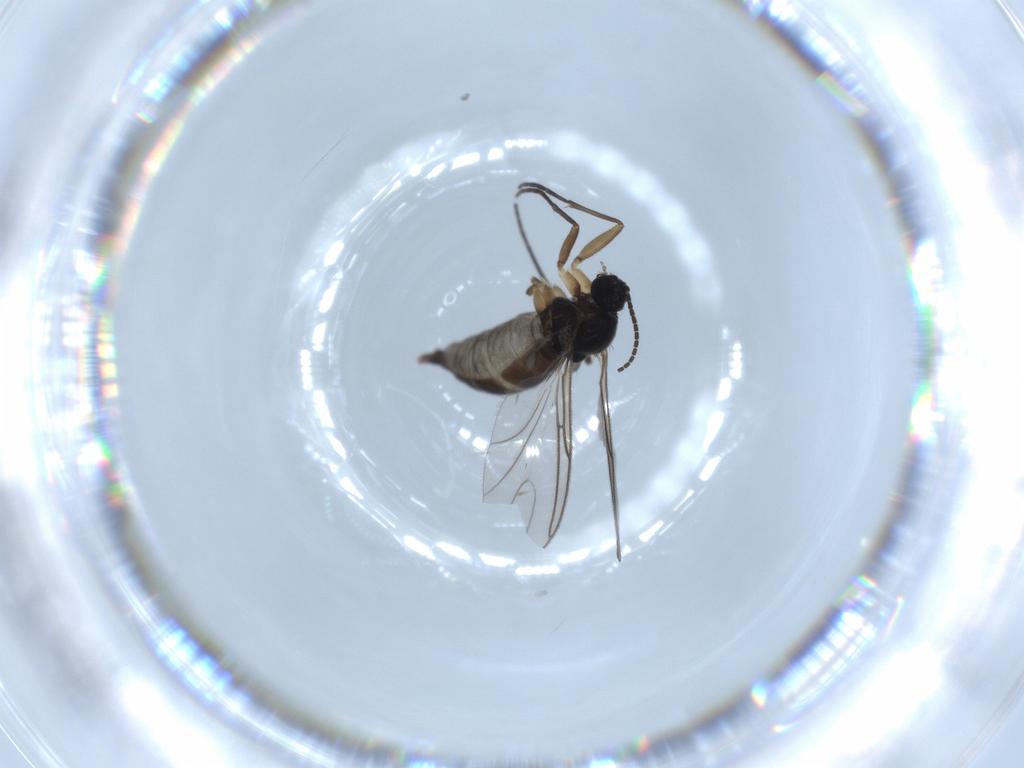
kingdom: Animalia
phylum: Arthropoda
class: Insecta
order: Diptera
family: Sciaridae
